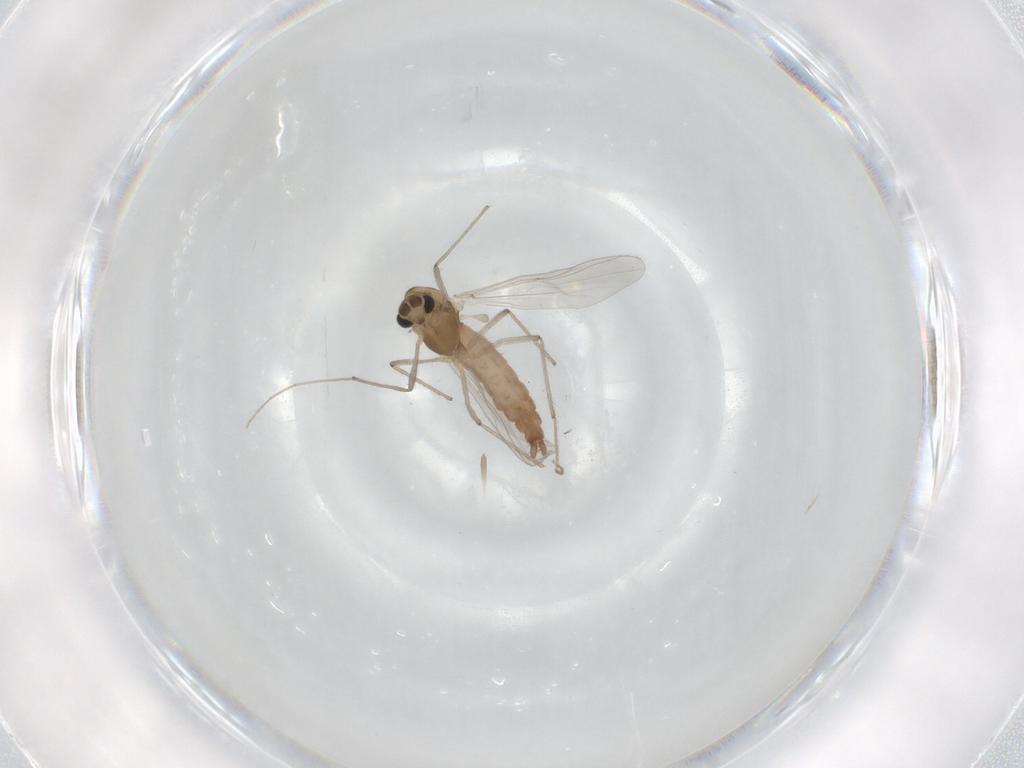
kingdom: Animalia
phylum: Arthropoda
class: Insecta
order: Diptera
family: Chironomidae
